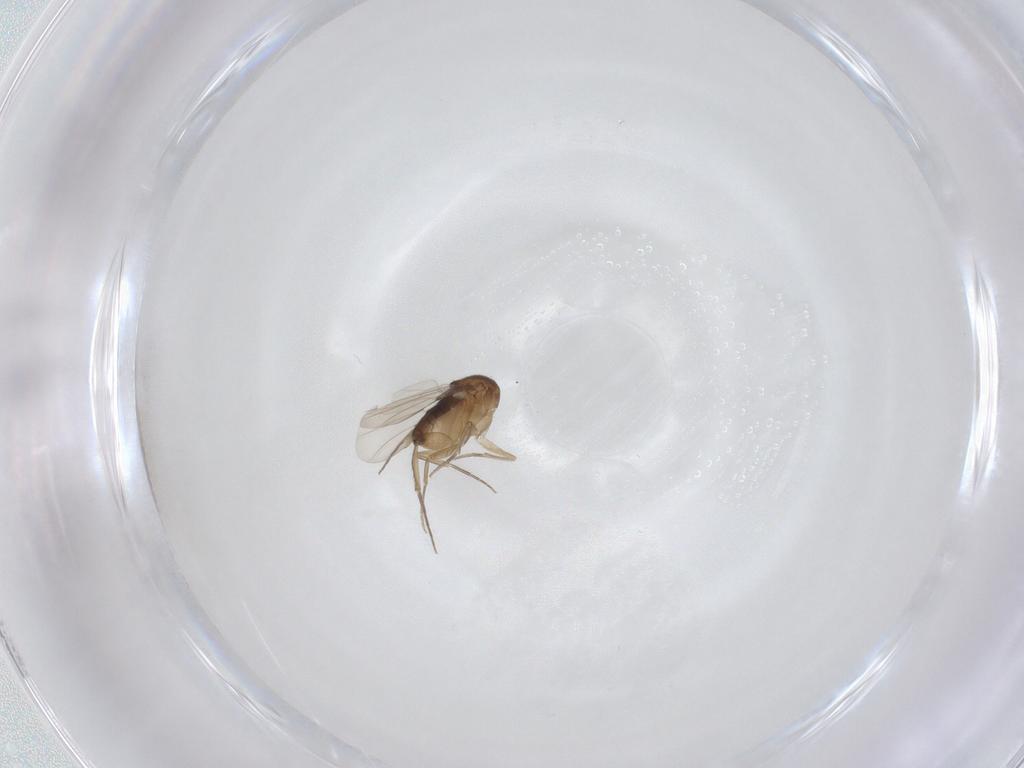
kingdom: Animalia
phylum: Arthropoda
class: Insecta
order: Diptera
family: Phoridae
